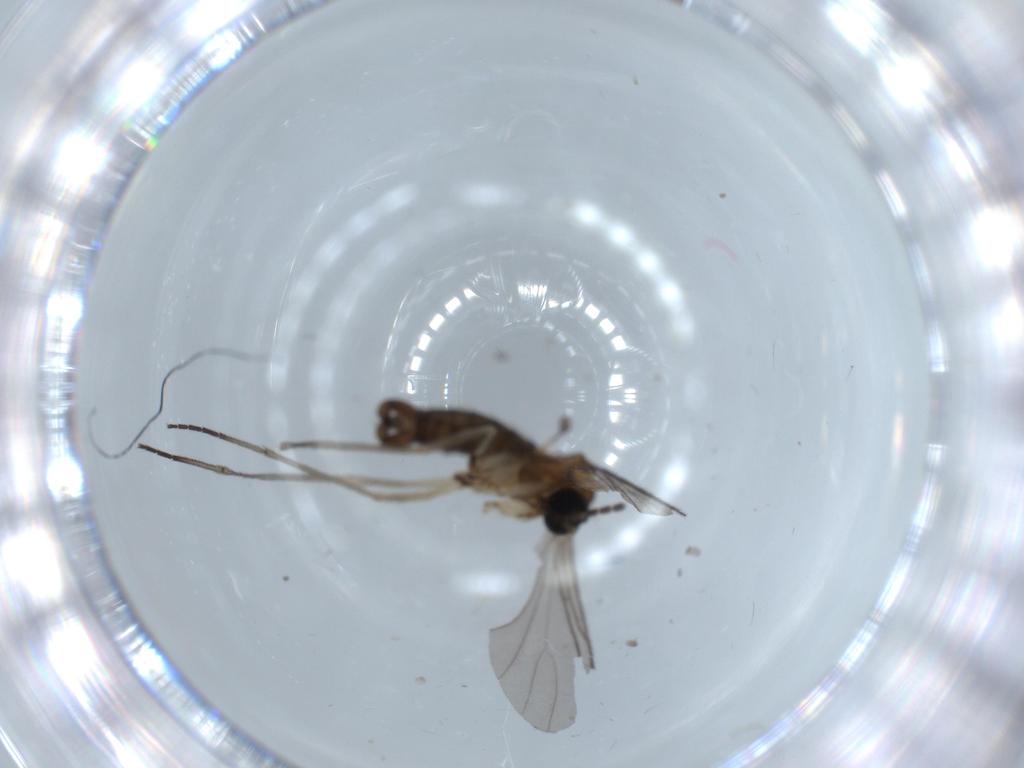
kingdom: Animalia
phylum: Arthropoda
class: Insecta
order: Diptera
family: Sciaridae
